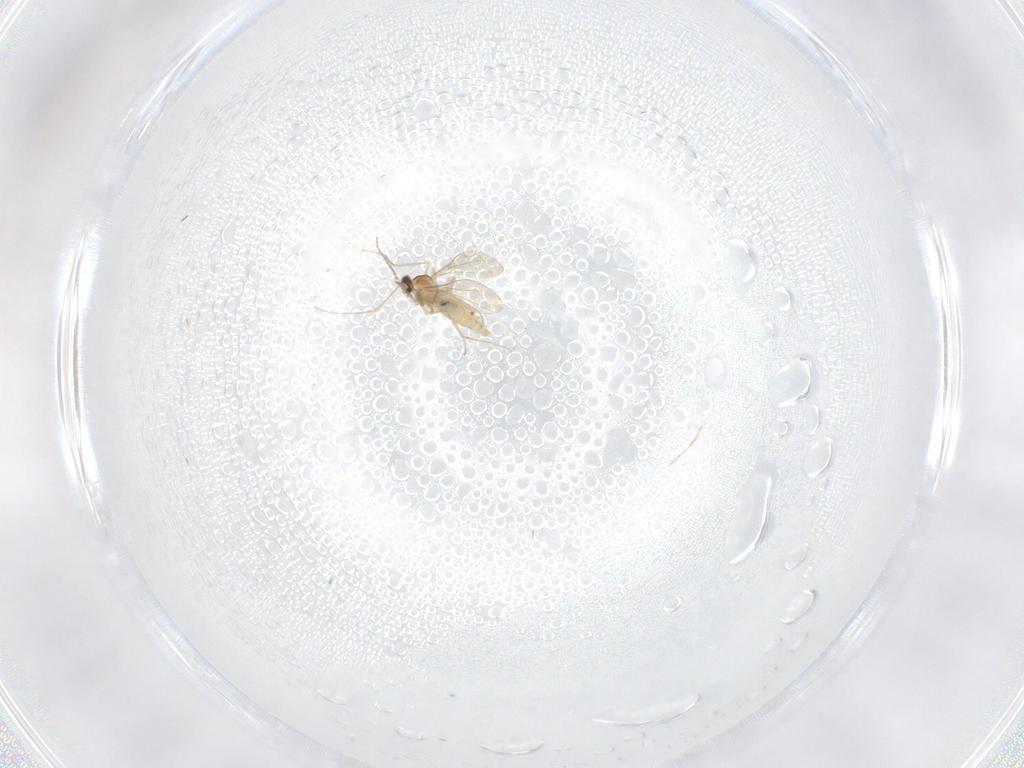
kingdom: Animalia
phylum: Arthropoda
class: Insecta
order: Diptera
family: Cecidomyiidae
